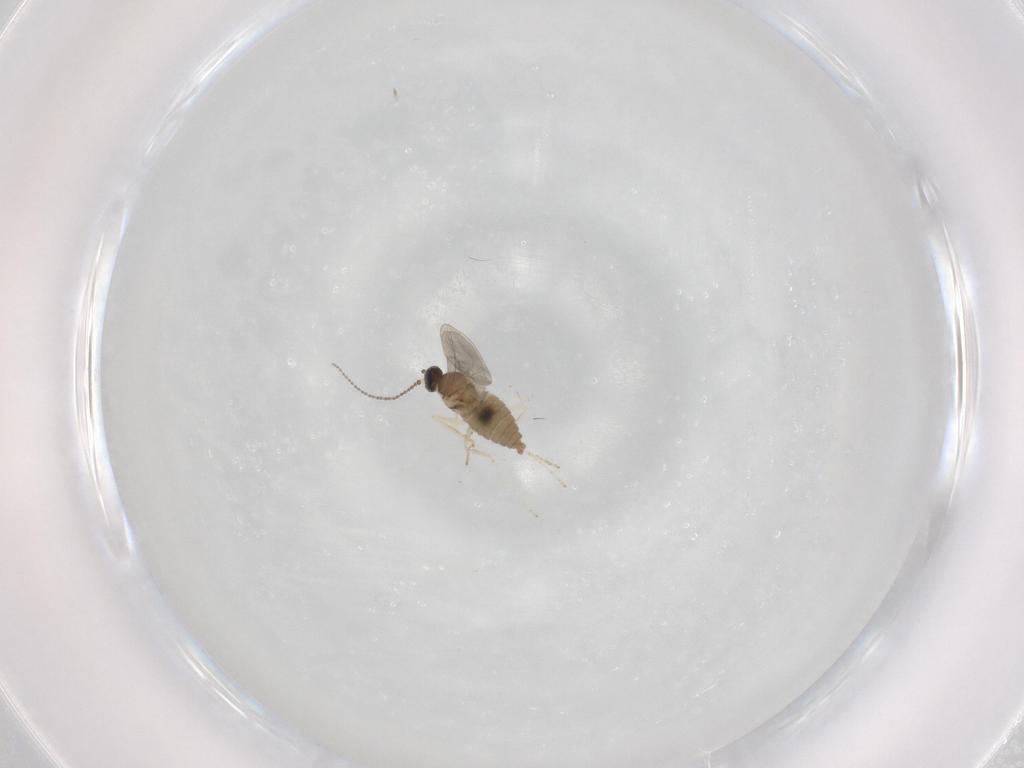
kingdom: Animalia
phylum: Arthropoda
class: Insecta
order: Diptera
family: Cecidomyiidae
